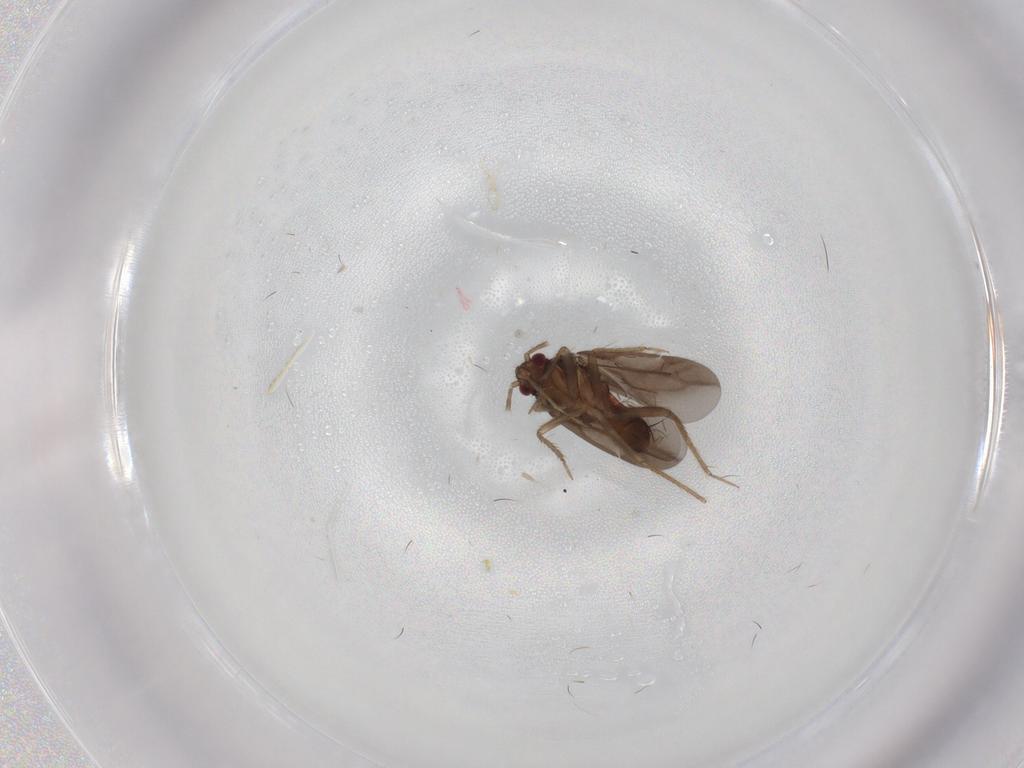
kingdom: Animalia
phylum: Arthropoda
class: Insecta
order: Hemiptera
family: Ceratocombidae
